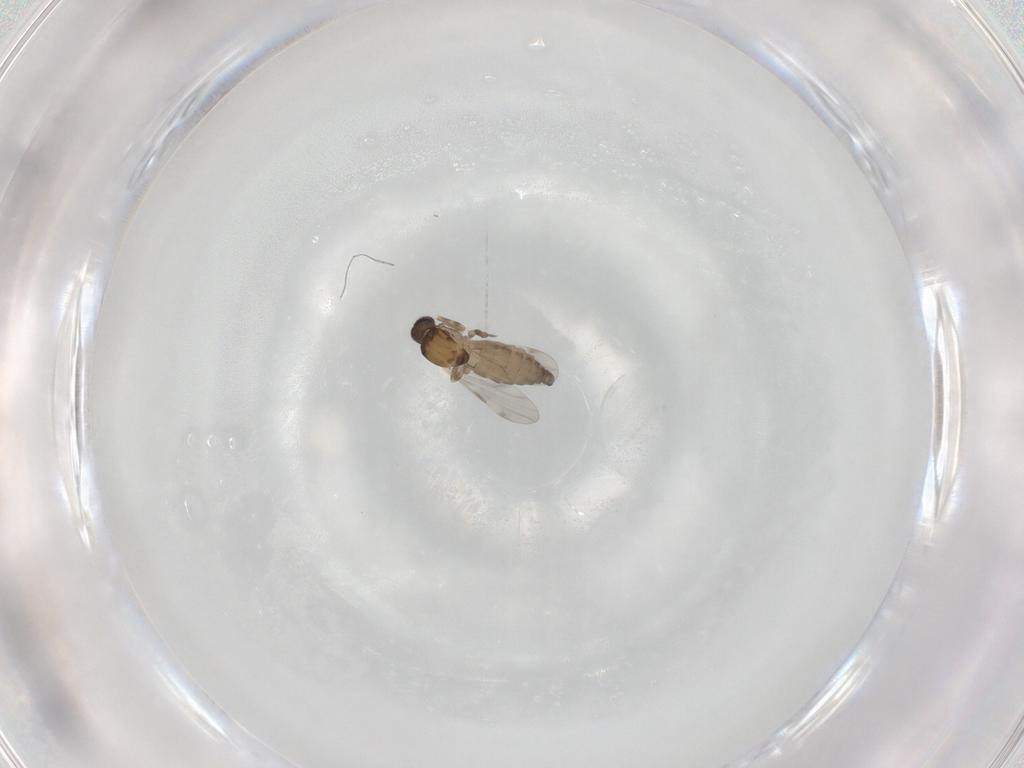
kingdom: Animalia
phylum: Arthropoda
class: Insecta
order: Diptera
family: Ceratopogonidae
